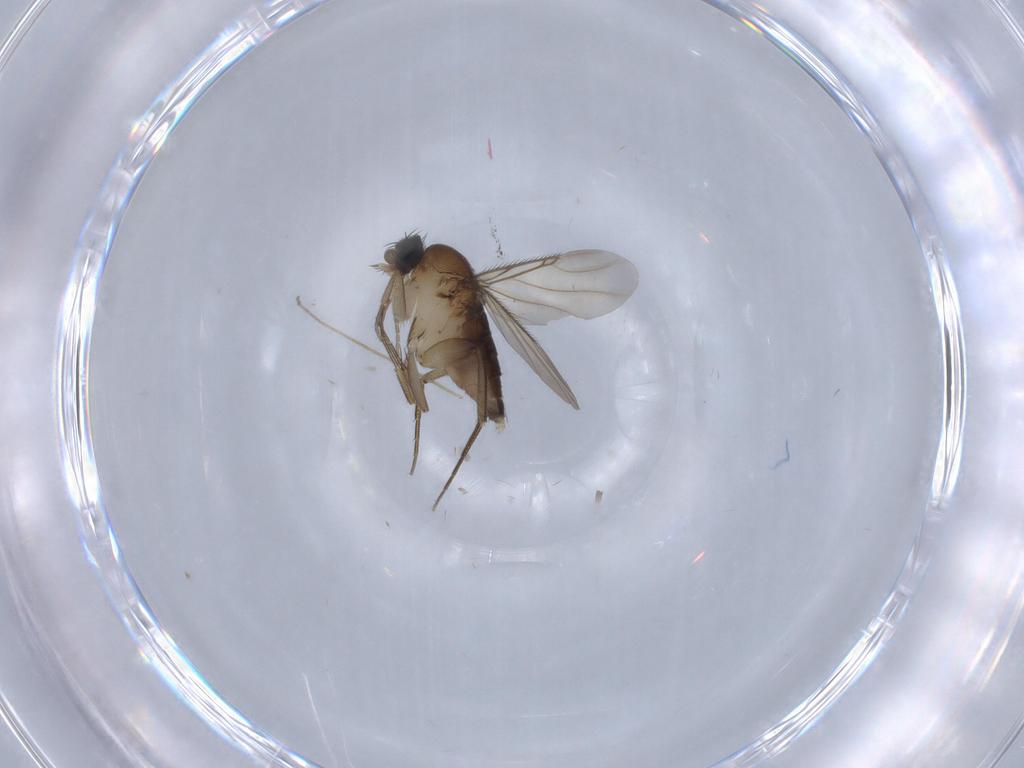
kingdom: Animalia
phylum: Arthropoda
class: Insecta
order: Diptera
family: Phoridae
